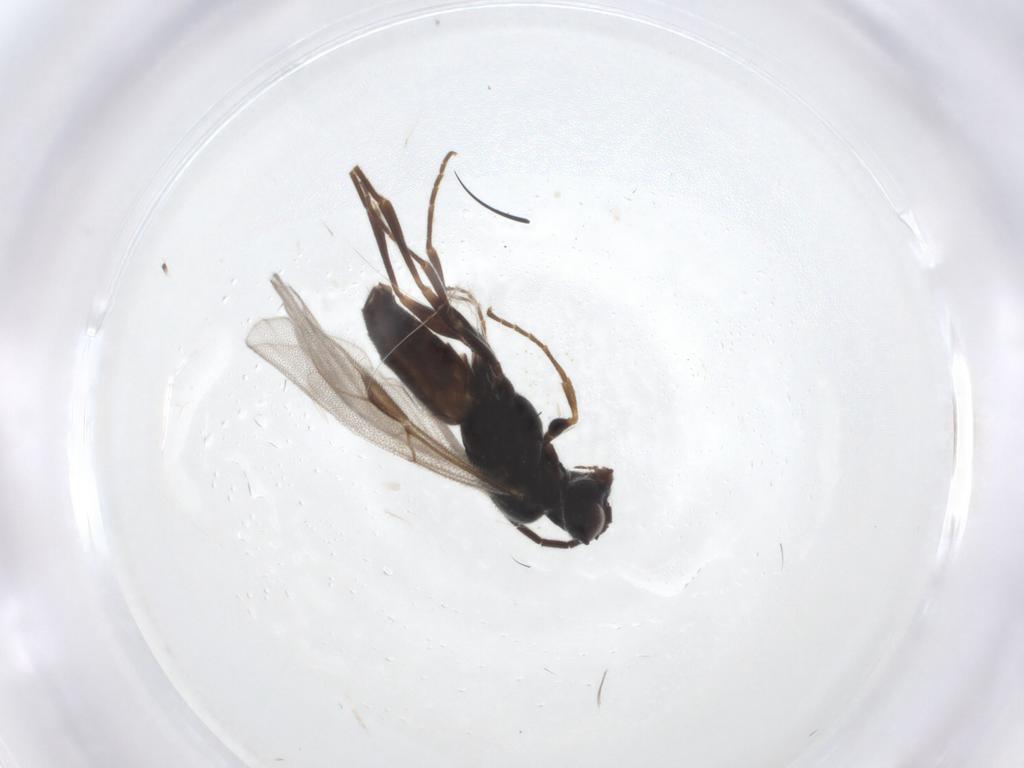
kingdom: Animalia
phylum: Arthropoda
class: Insecta
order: Hymenoptera
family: Dryinidae
